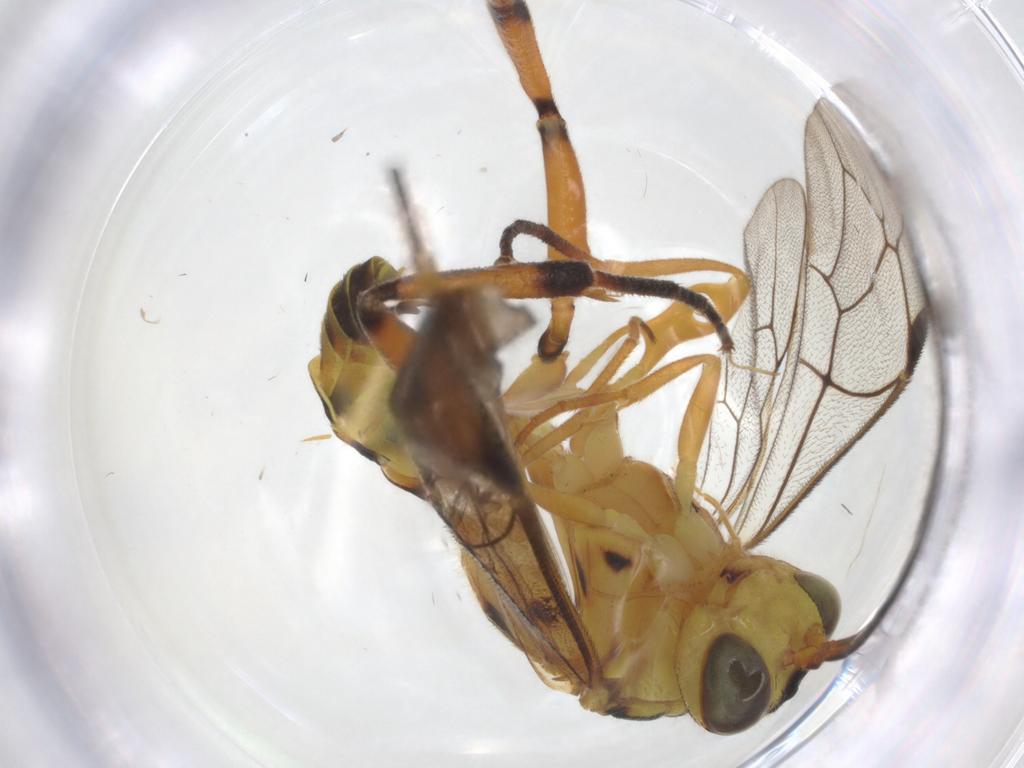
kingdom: Animalia
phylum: Arthropoda
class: Insecta
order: Hymenoptera
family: Ichneumonidae
